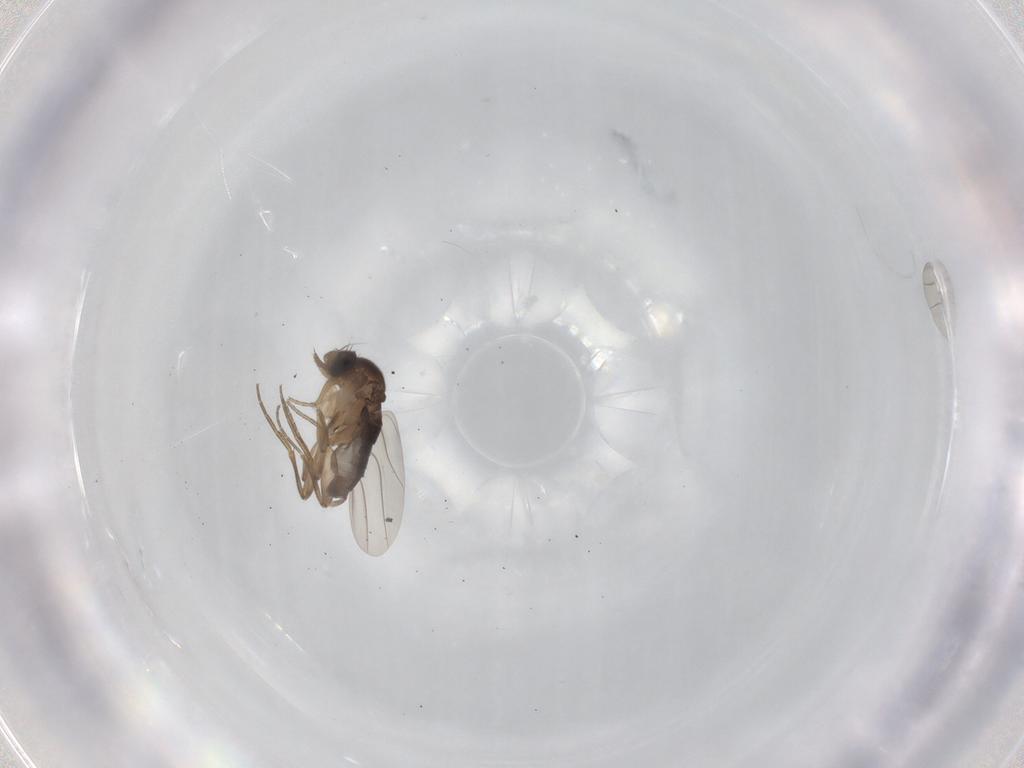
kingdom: Animalia
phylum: Arthropoda
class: Insecta
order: Diptera
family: Phoridae
